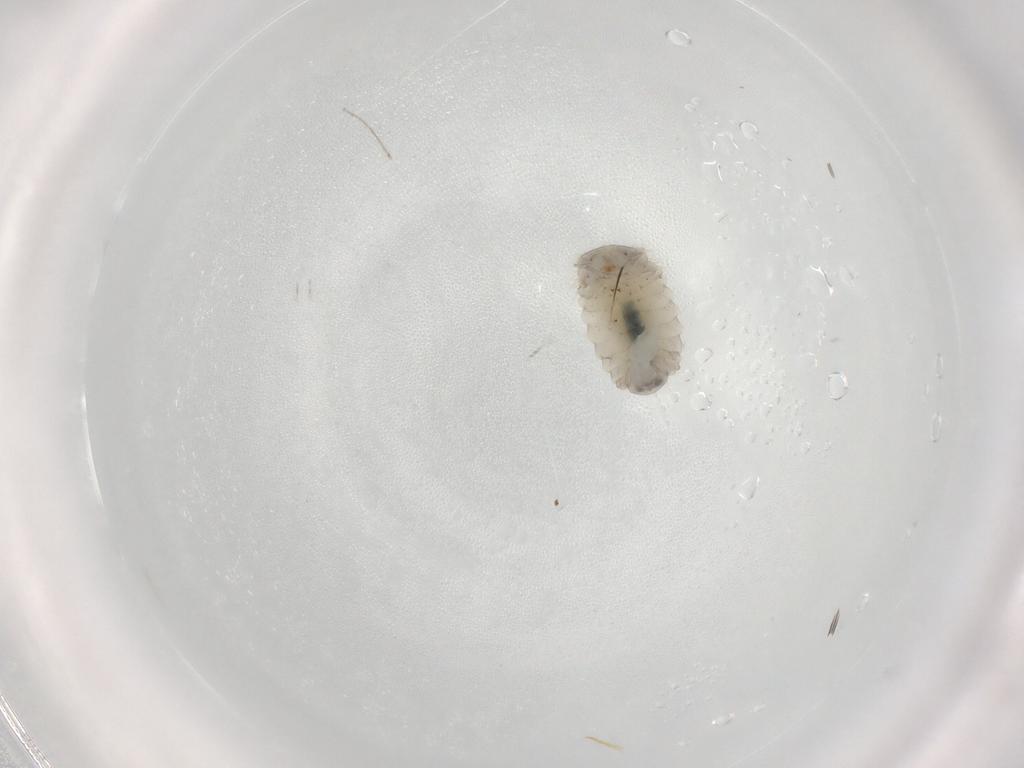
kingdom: Animalia
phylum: Arthropoda
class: Insecta
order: Coleoptera
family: Corylophidae
